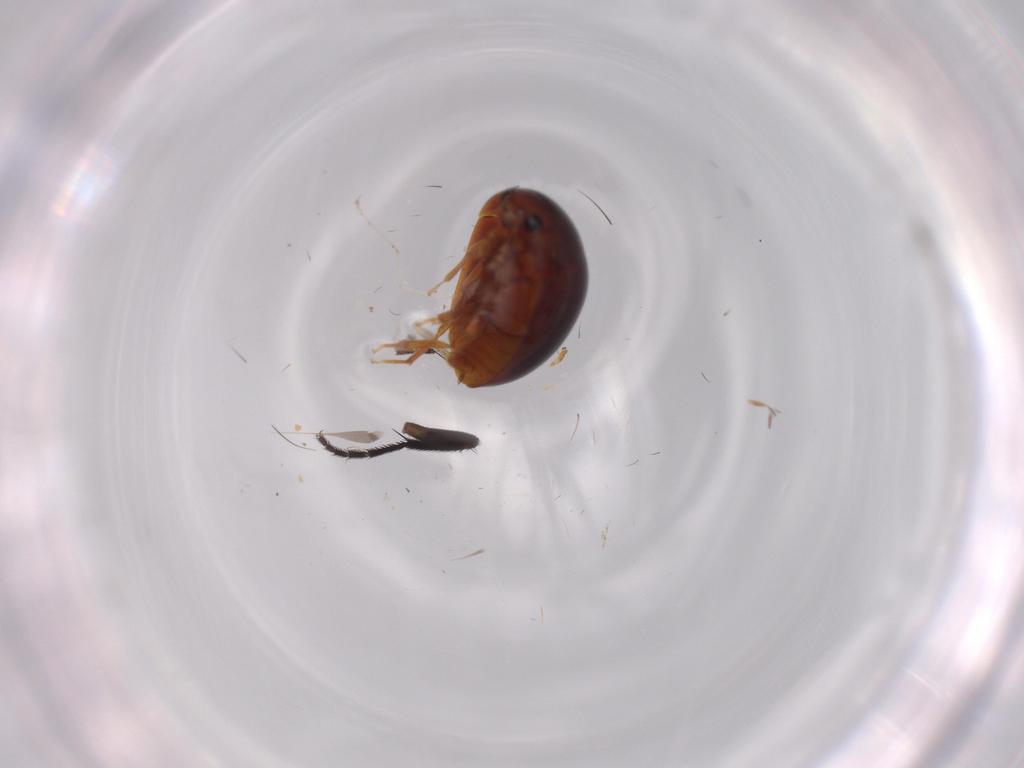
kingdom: Animalia
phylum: Arthropoda
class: Insecta
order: Coleoptera
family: Phalacridae
